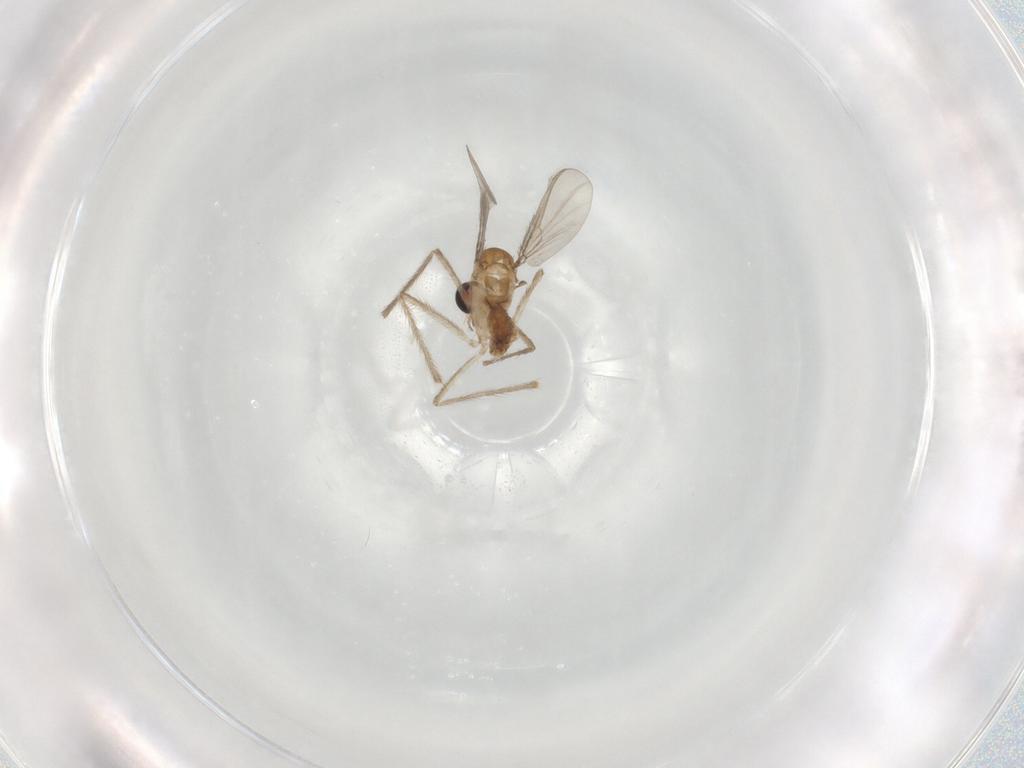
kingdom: Animalia
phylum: Arthropoda
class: Insecta
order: Diptera
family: Chironomidae
